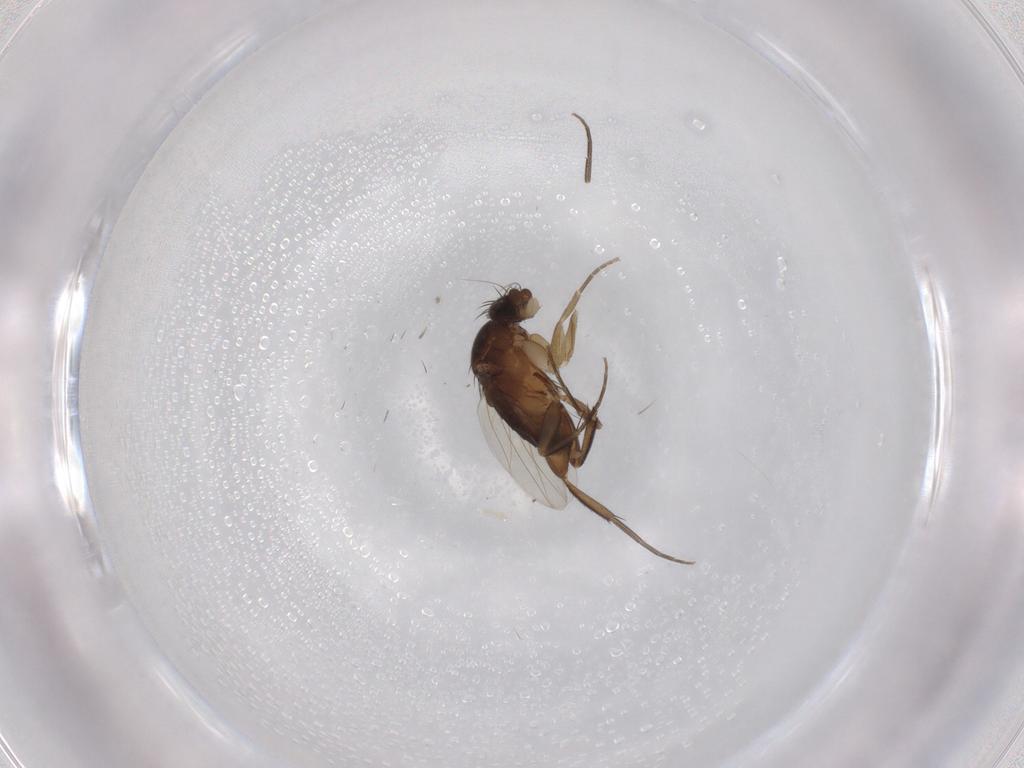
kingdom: Animalia
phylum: Arthropoda
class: Insecta
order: Diptera
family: Phoridae
